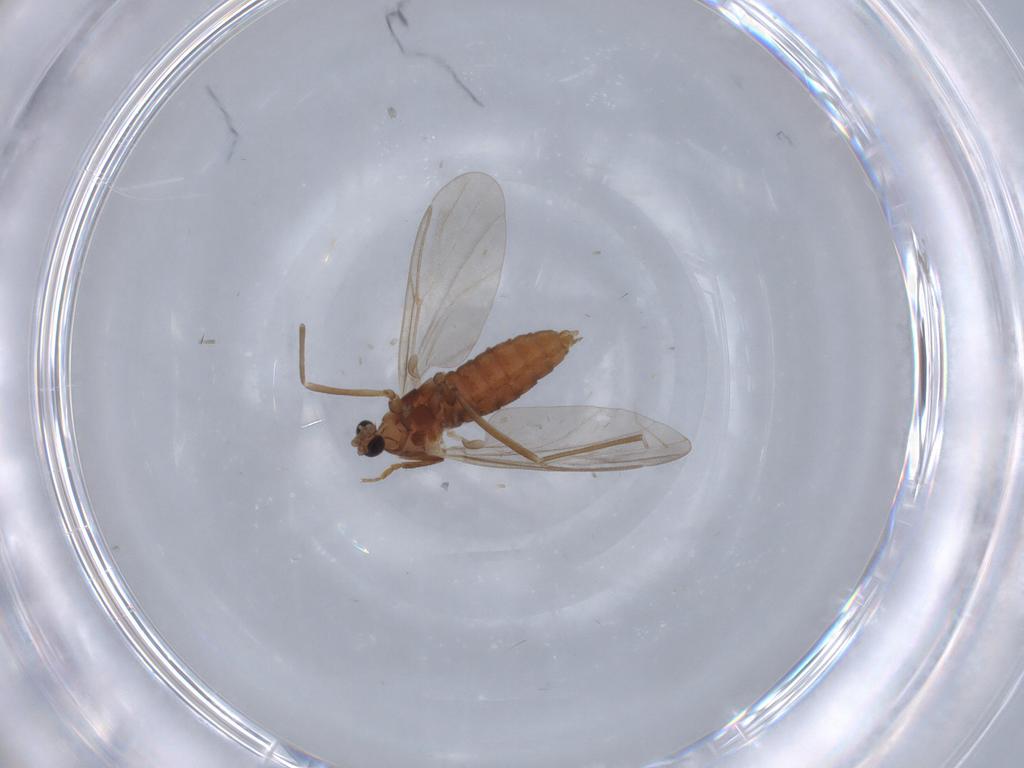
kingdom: Animalia
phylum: Arthropoda
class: Insecta
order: Diptera
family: Cecidomyiidae
